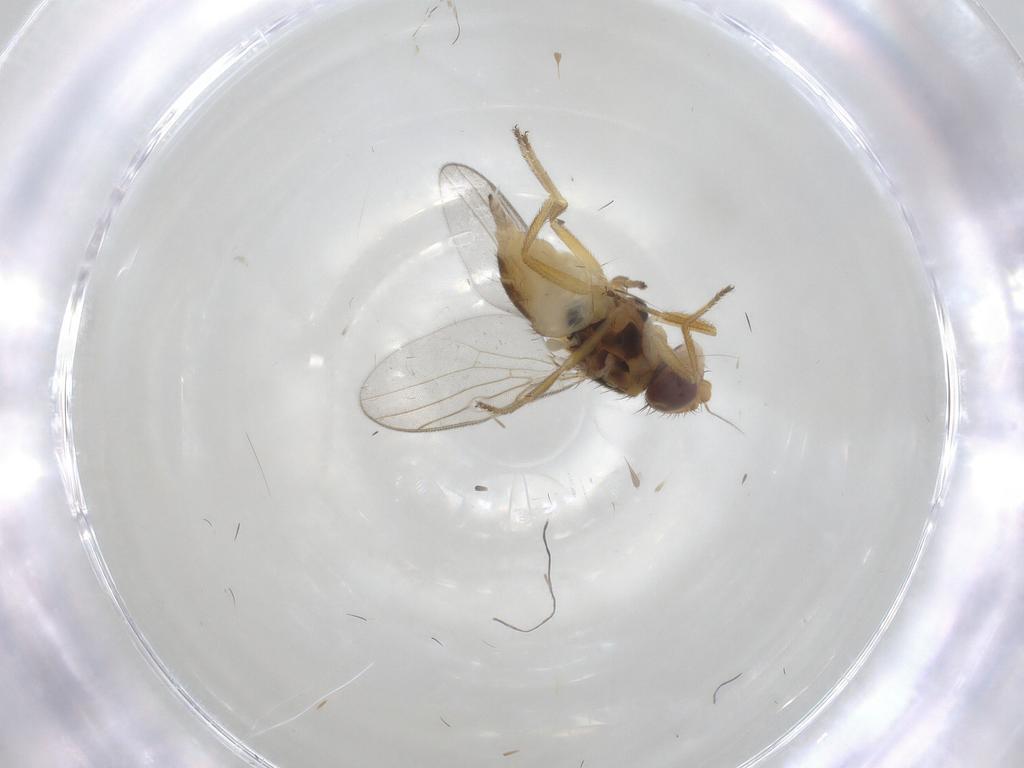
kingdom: Animalia
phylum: Arthropoda
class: Insecta
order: Diptera
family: Chloropidae
